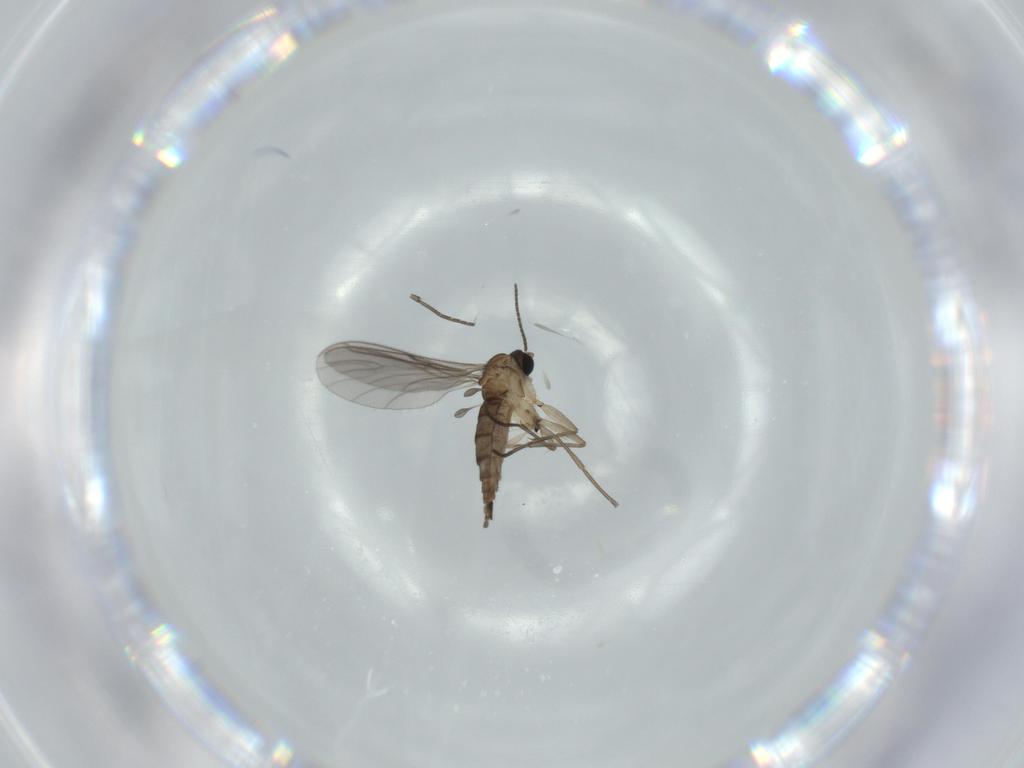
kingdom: Animalia
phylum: Arthropoda
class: Insecta
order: Diptera
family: Sciaridae
